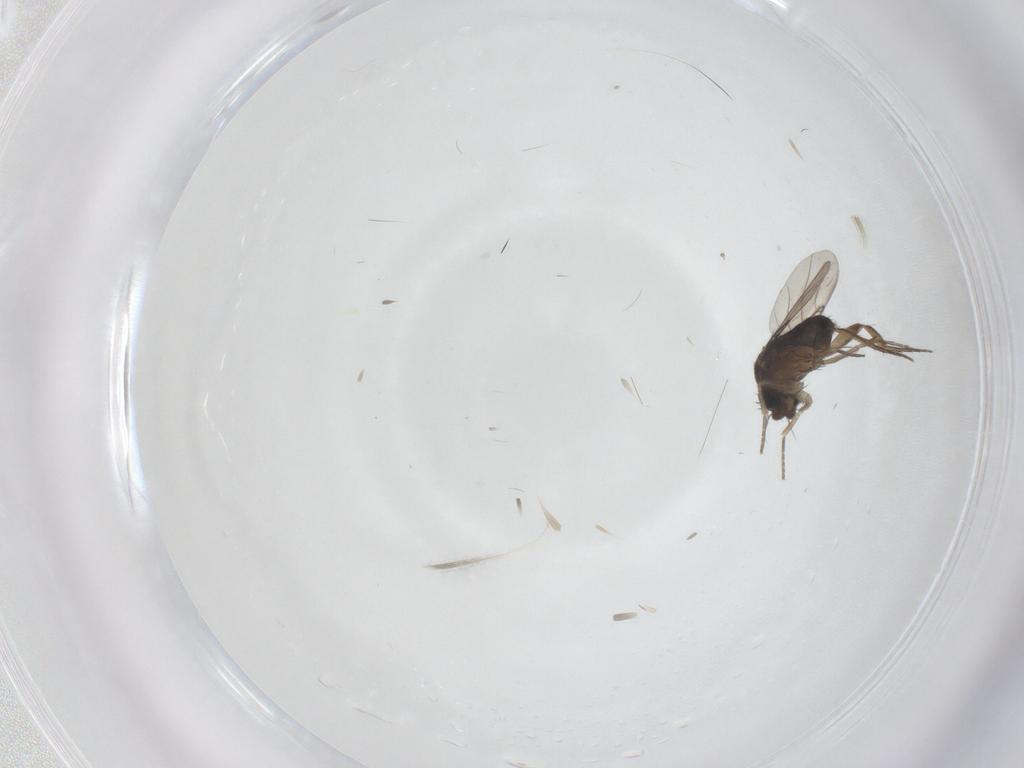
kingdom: Animalia
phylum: Arthropoda
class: Insecta
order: Diptera
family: Phoridae
